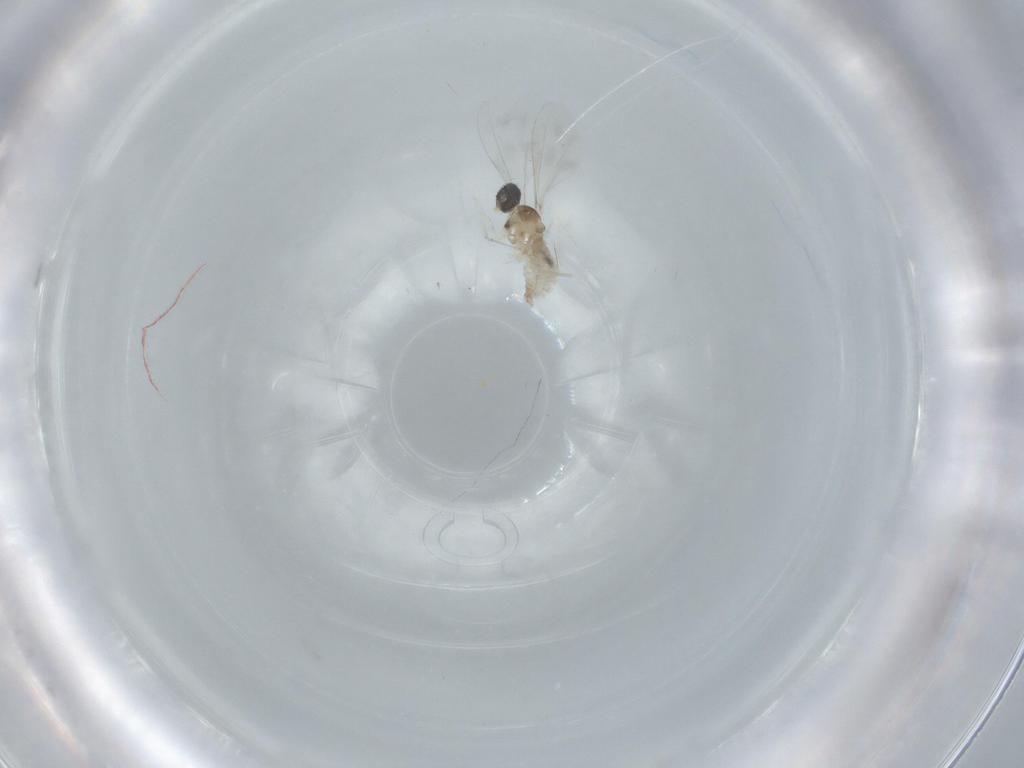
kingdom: Animalia
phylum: Arthropoda
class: Insecta
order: Diptera
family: Cecidomyiidae
